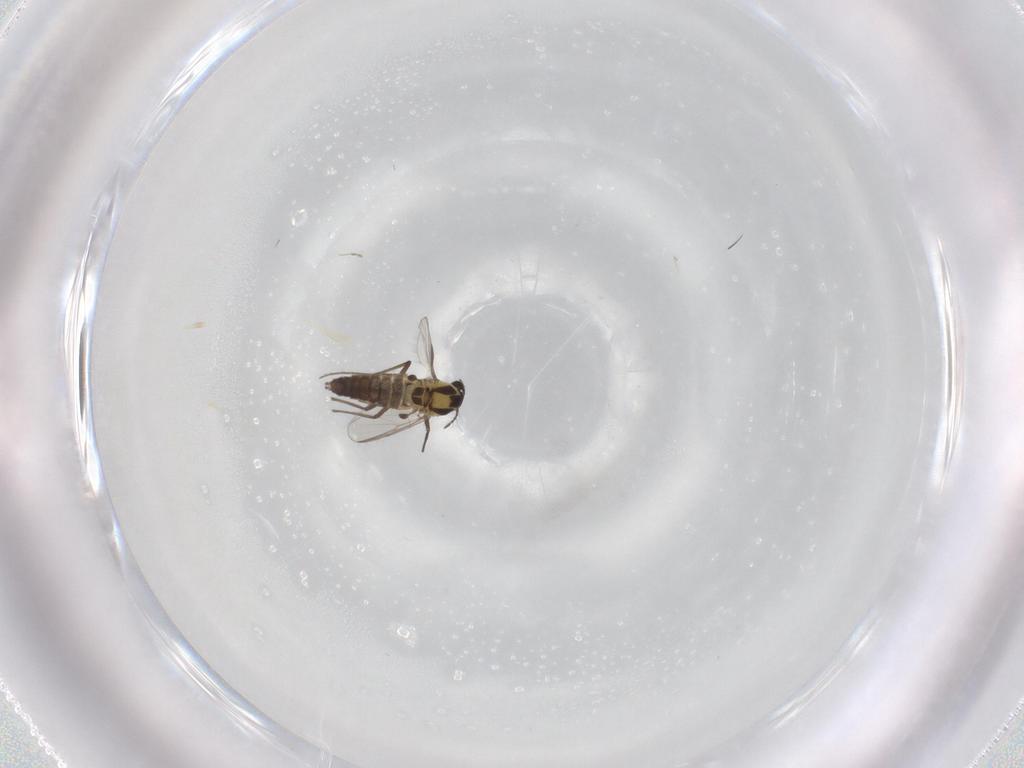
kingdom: Animalia
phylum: Arthropoda
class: Insecta
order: Diptera
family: Chironomidae
